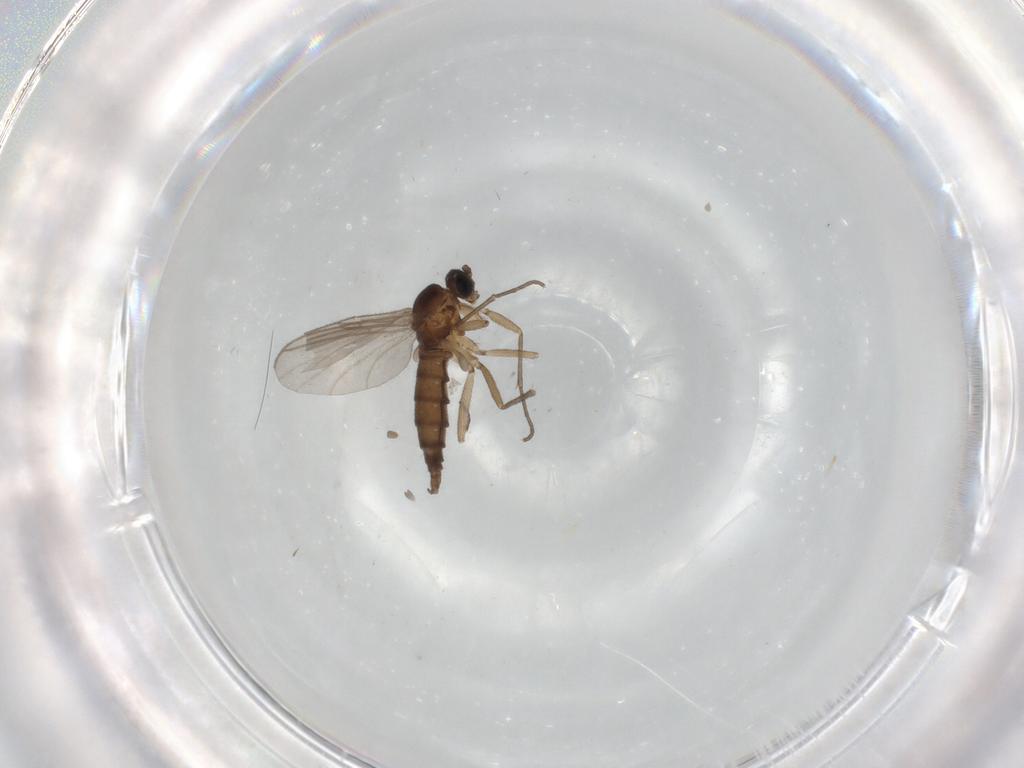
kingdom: Animalia
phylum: Arthropoda
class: Insecta
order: Diptera
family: Sciaridae
